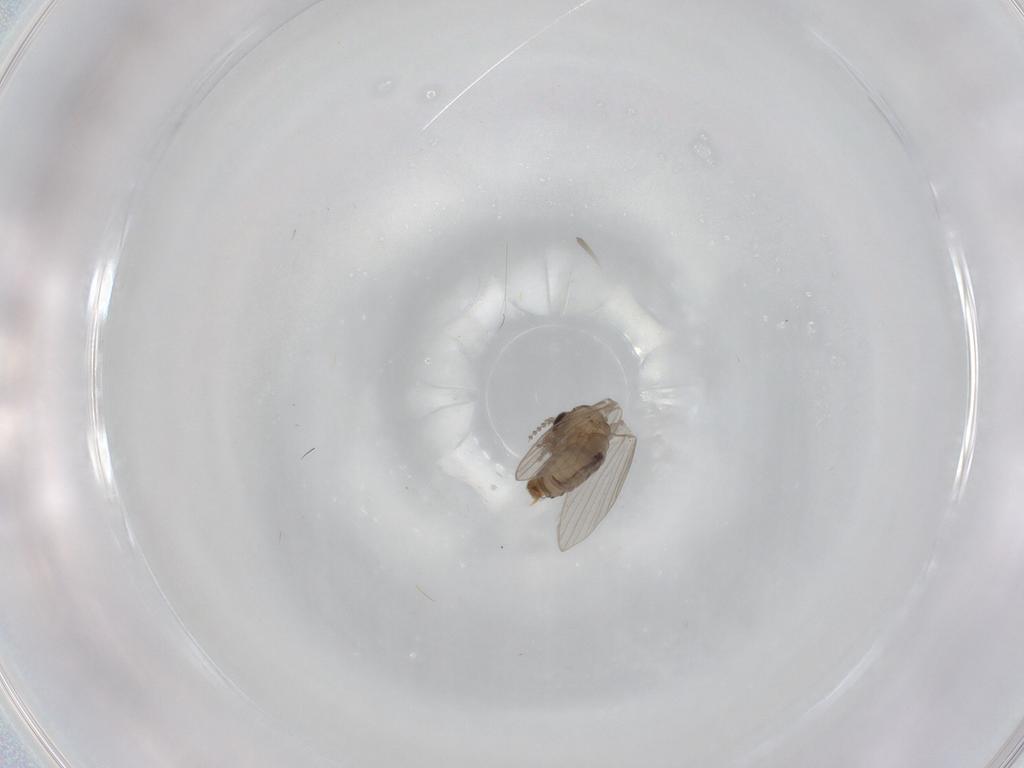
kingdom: Animalia
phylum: Arthropoda
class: Insecta
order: Diptera
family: Psychodidae
